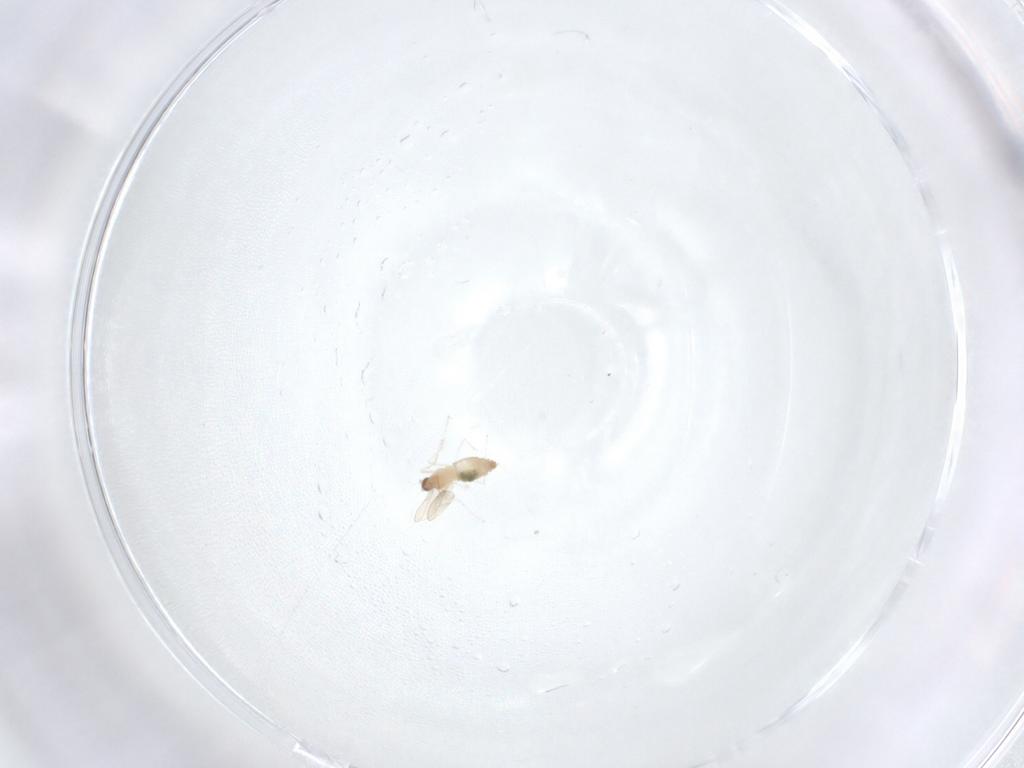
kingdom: Animalia
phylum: Arthropoda
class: Insecta
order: Diptera
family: Cecidomyiidae
